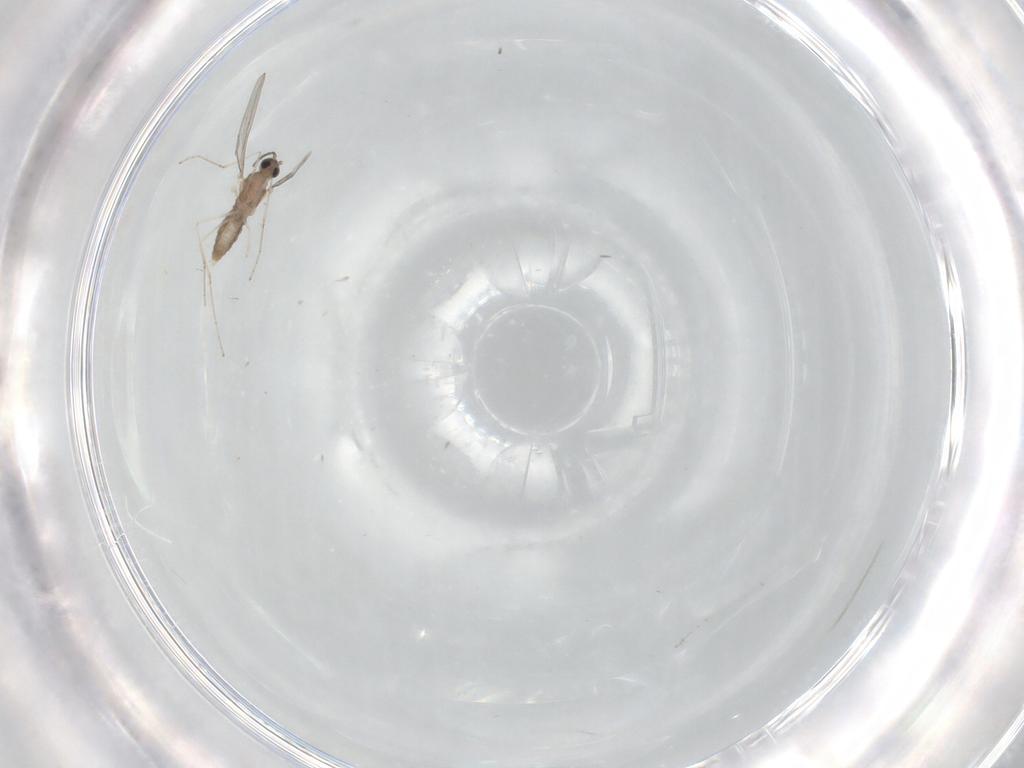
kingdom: Animalia
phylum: Arthropoda
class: Insecta
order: Diptera
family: Cecidomyiidae
